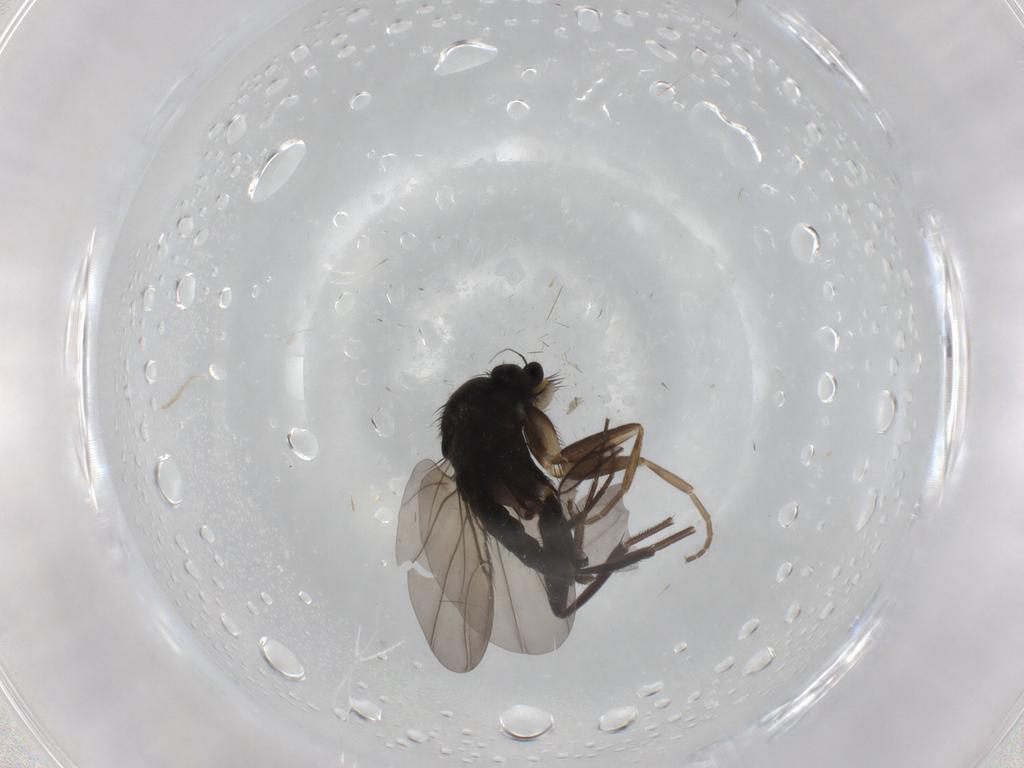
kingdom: Animalia
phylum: Arthropoda
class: Insecta
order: Diptera
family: Phoridae
